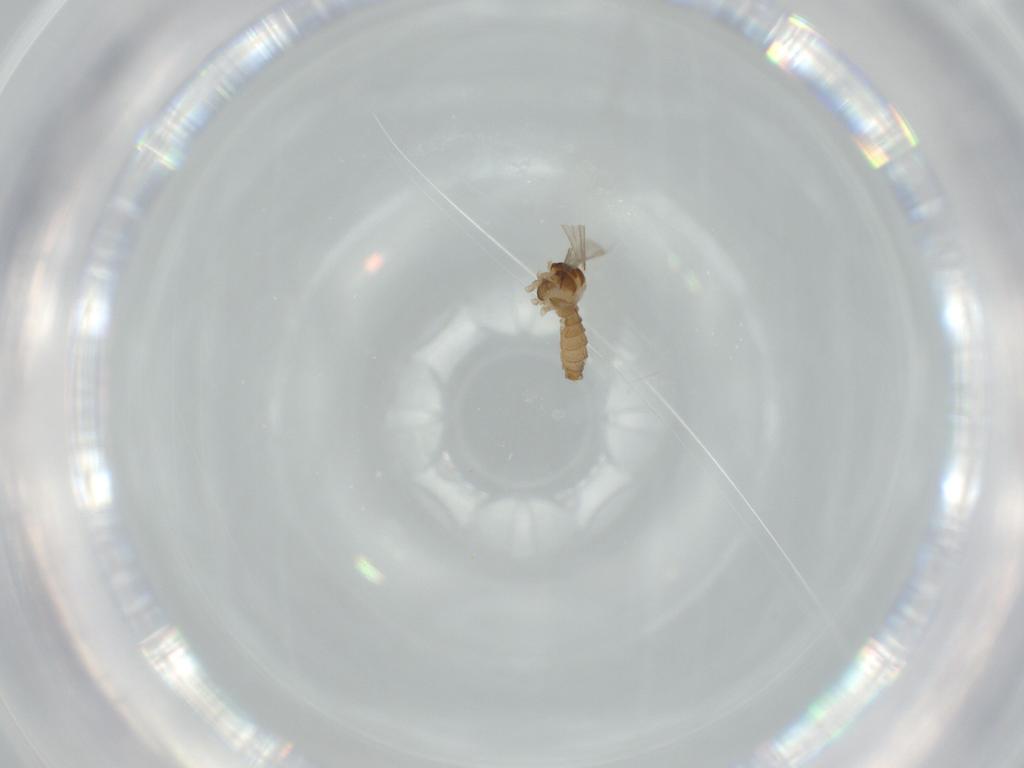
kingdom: Animalia
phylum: Arthropoda
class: Insecta
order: Diptera
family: Cecidomyiidae
